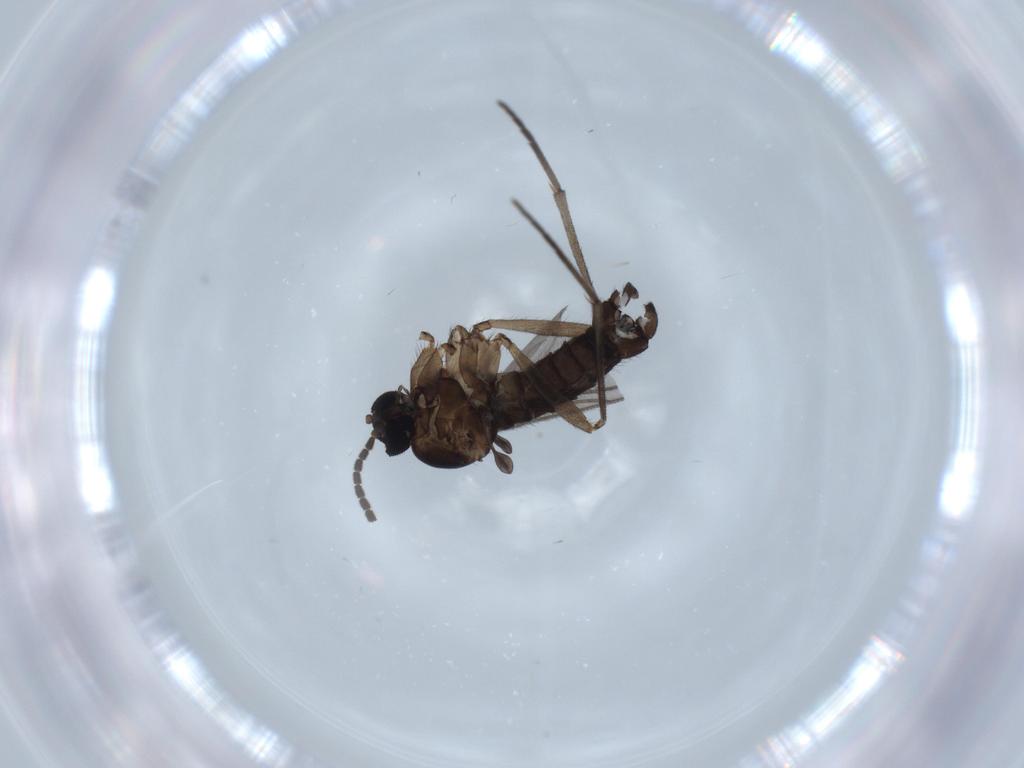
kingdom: Animalia
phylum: Arthropoda
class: Insecta
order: Diptera
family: Sciaridae
